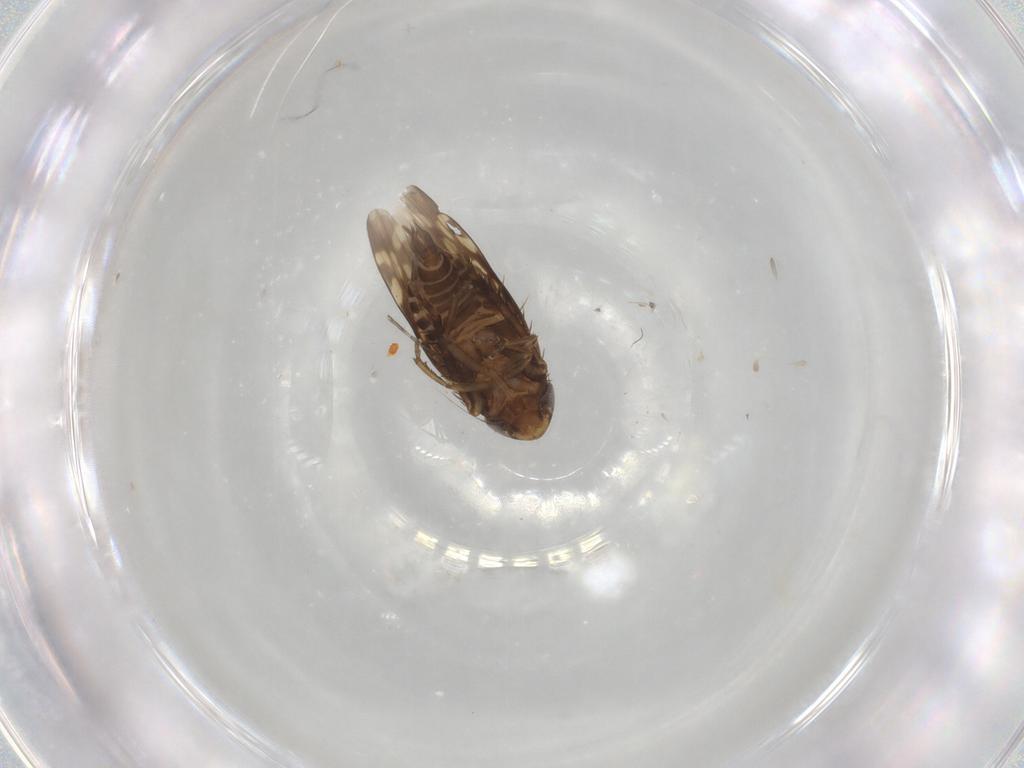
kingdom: Animalia
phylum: Arthropoda
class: Insecta
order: Hemiptera
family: Cicadellidae
